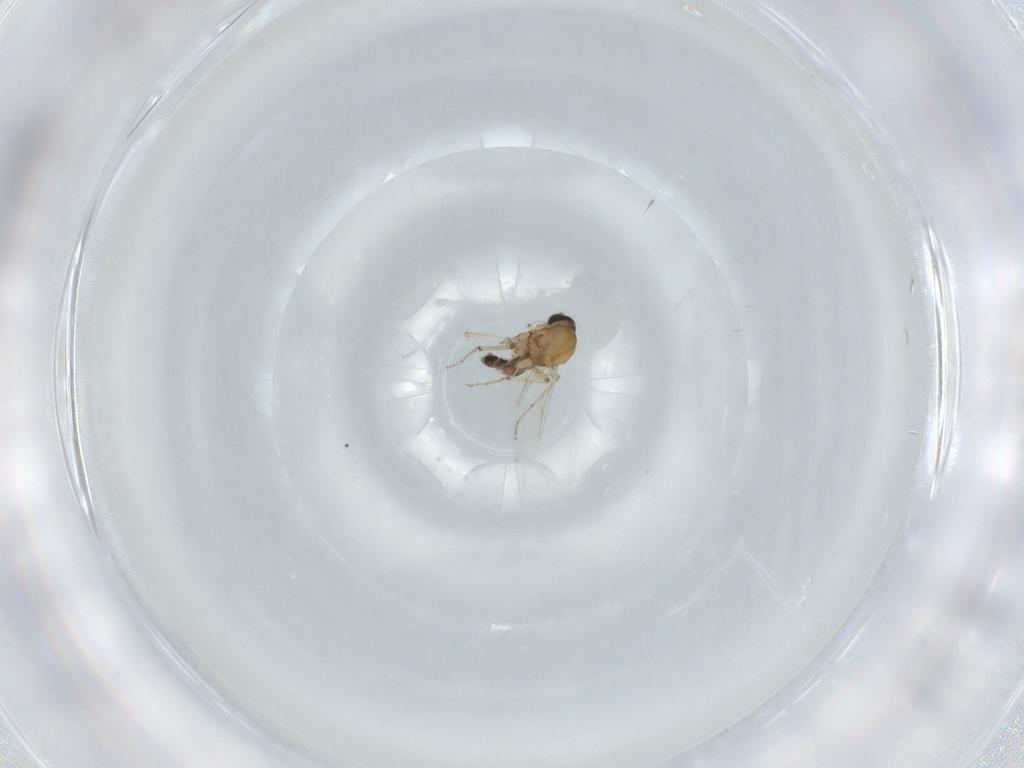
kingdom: Animalia
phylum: Arthropoda
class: Insecta
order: Diptera
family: Ceratopogonidae
